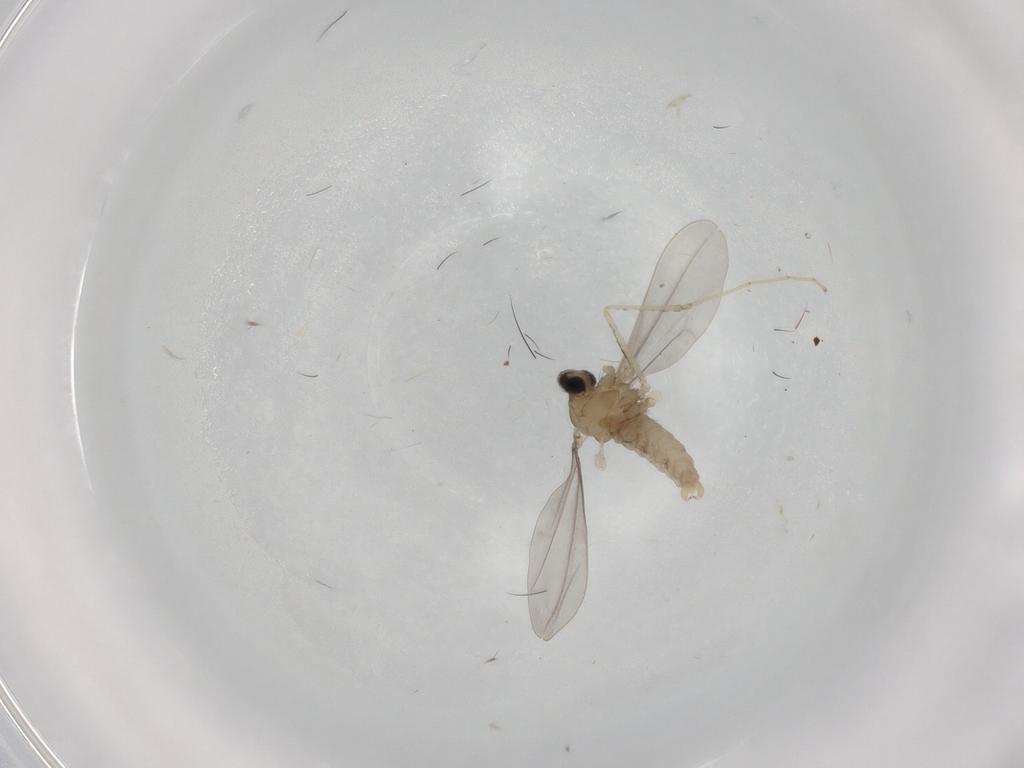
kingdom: Animalia
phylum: Arthropoda
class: Insecta
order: Diptera
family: Cecidomyiidae
